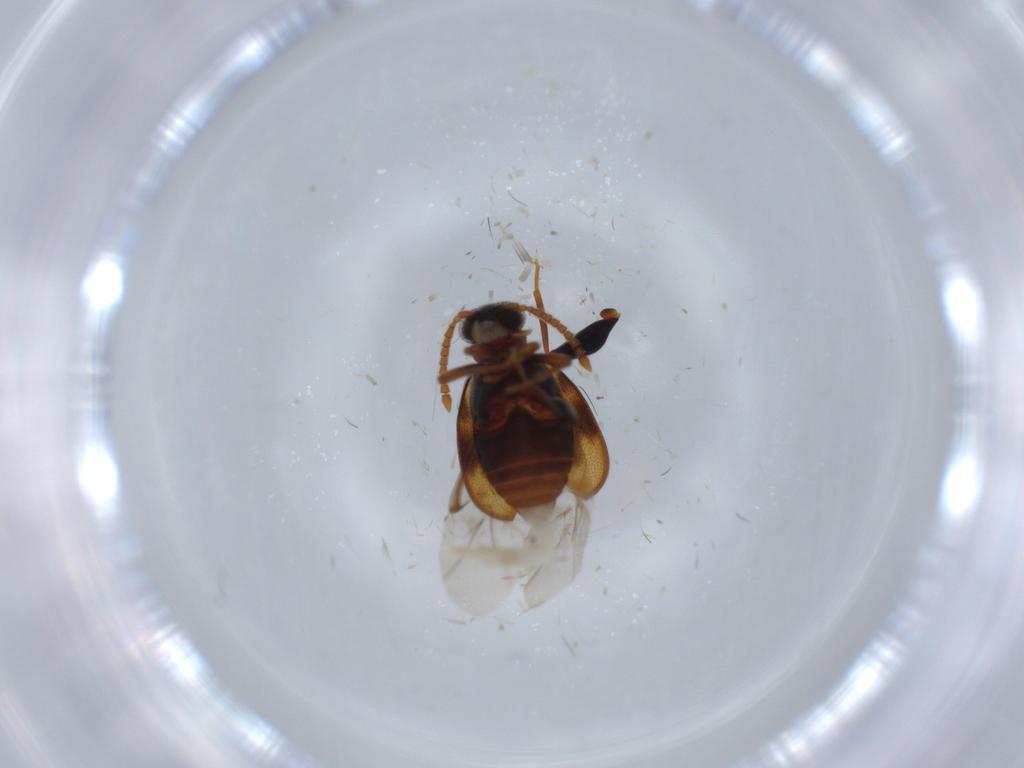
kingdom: Animalia
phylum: Arthropoda
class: Insecta
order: Coleoptera
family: Aderidae
